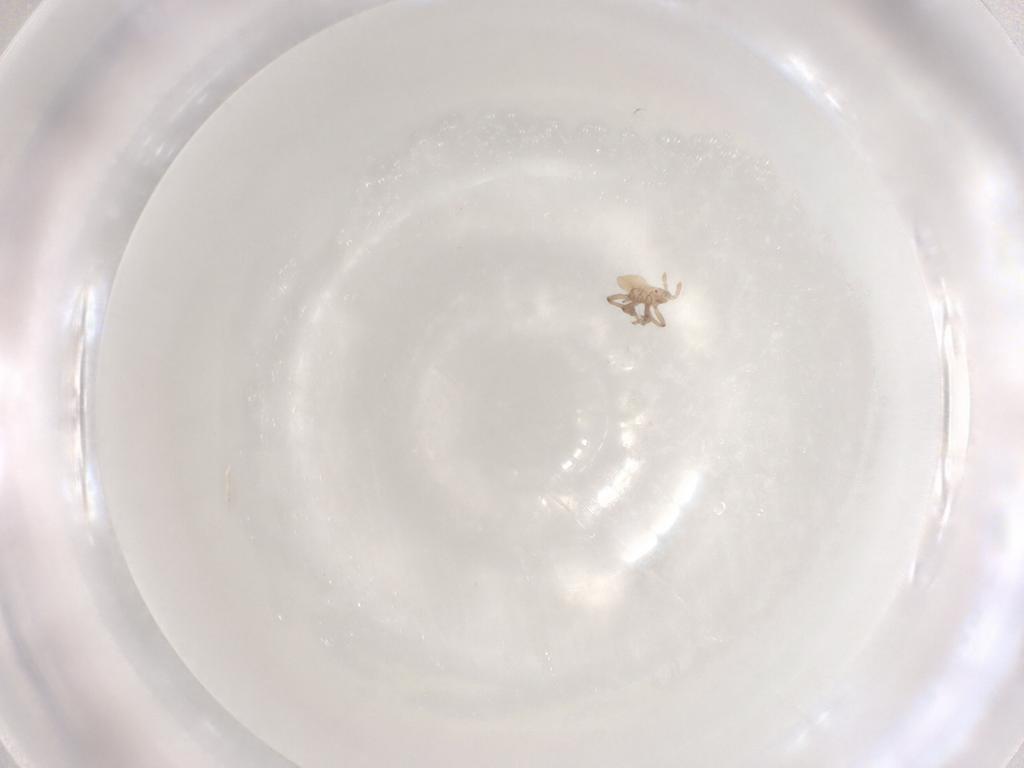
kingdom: Animalia
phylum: Arthropoda
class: Insecta
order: Hemiptera
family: Aphididae
